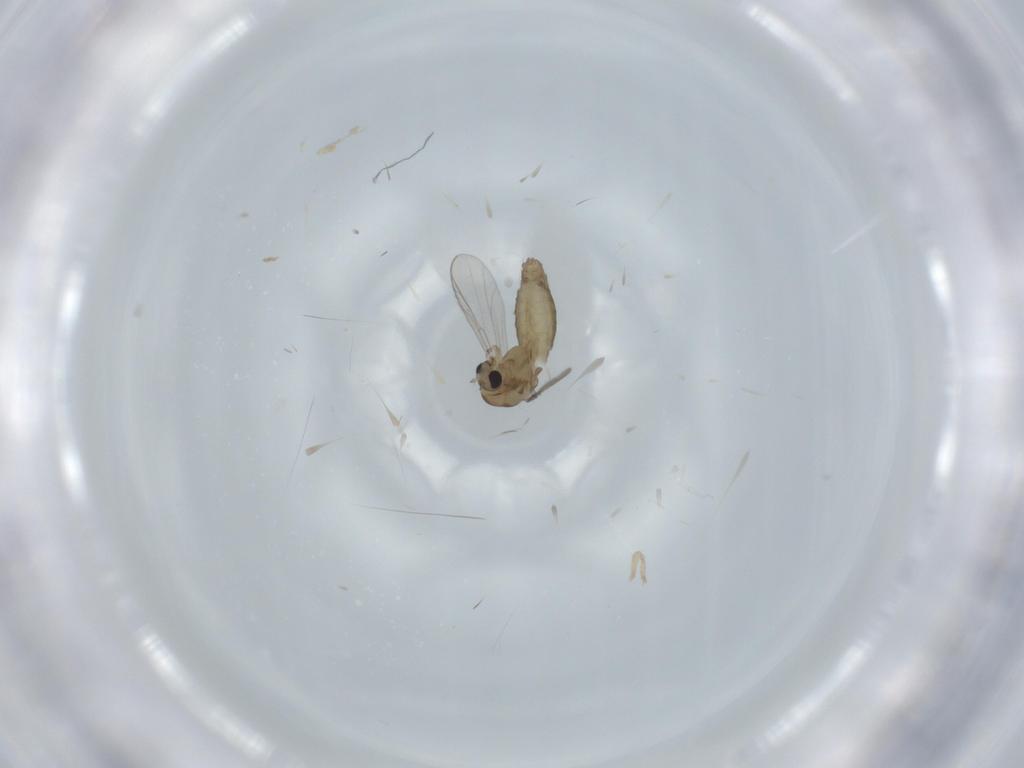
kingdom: Animalia
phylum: Arthropoda
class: Insecta
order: Diptera
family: Chironomidae
